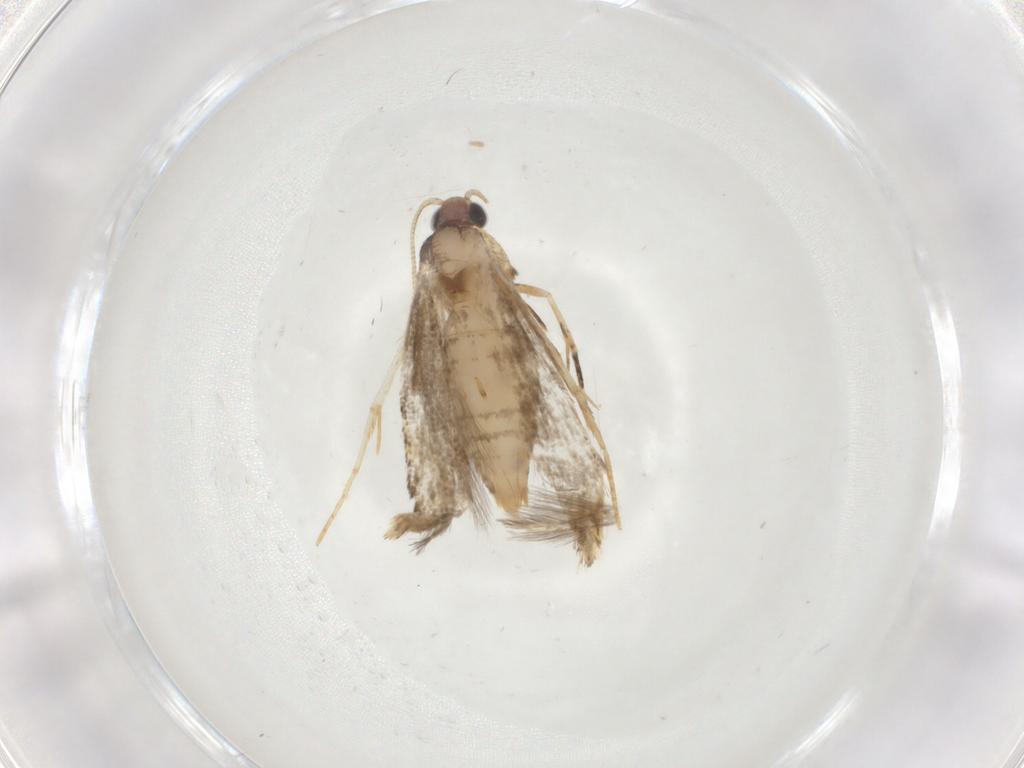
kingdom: Animalia
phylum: Arthropoda
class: Insecta
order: Lepidoptera
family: Tineidae
